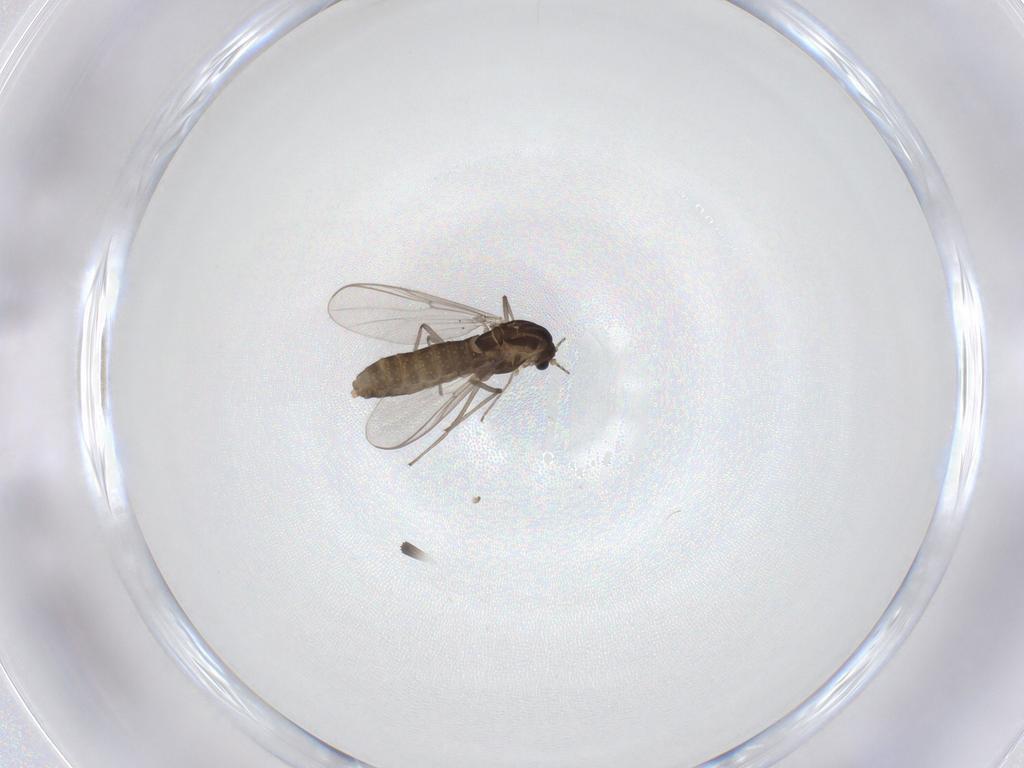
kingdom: Animalia
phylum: Arthropoda
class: Insecta
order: Diptera
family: Chironomidae
